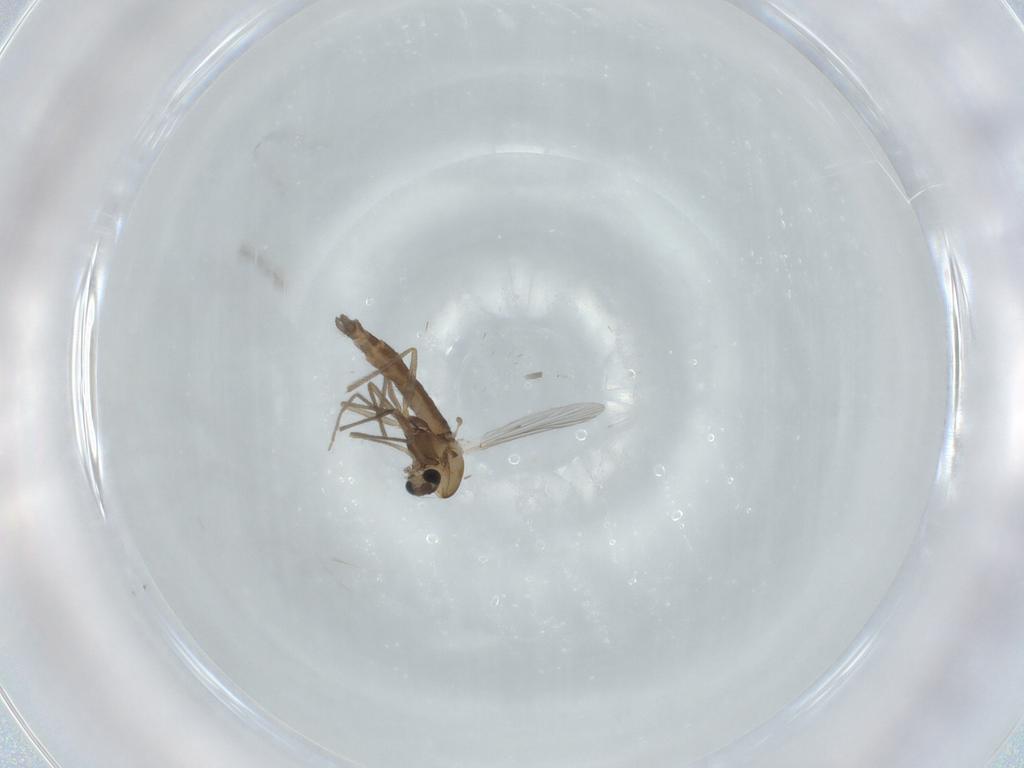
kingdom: Animalia
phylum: Arthropoda
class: Insecta
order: Diptera
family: Chironomidae
